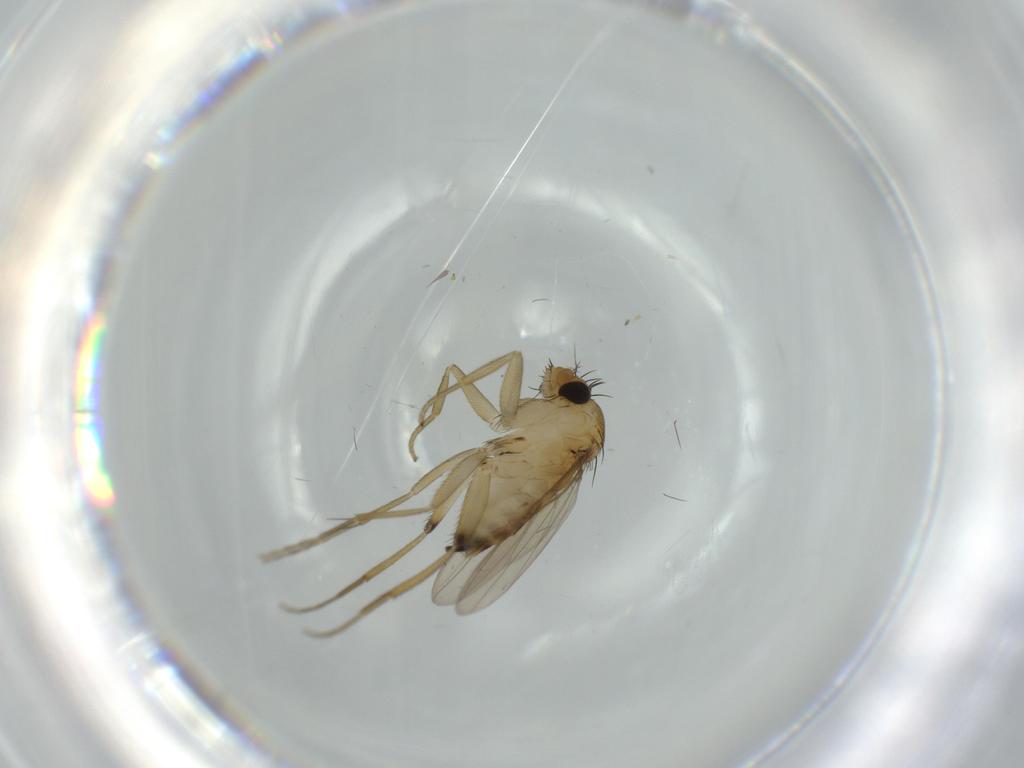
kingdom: Animalia
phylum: Arthropoda
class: Insecta
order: Diptera
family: Phoridae
